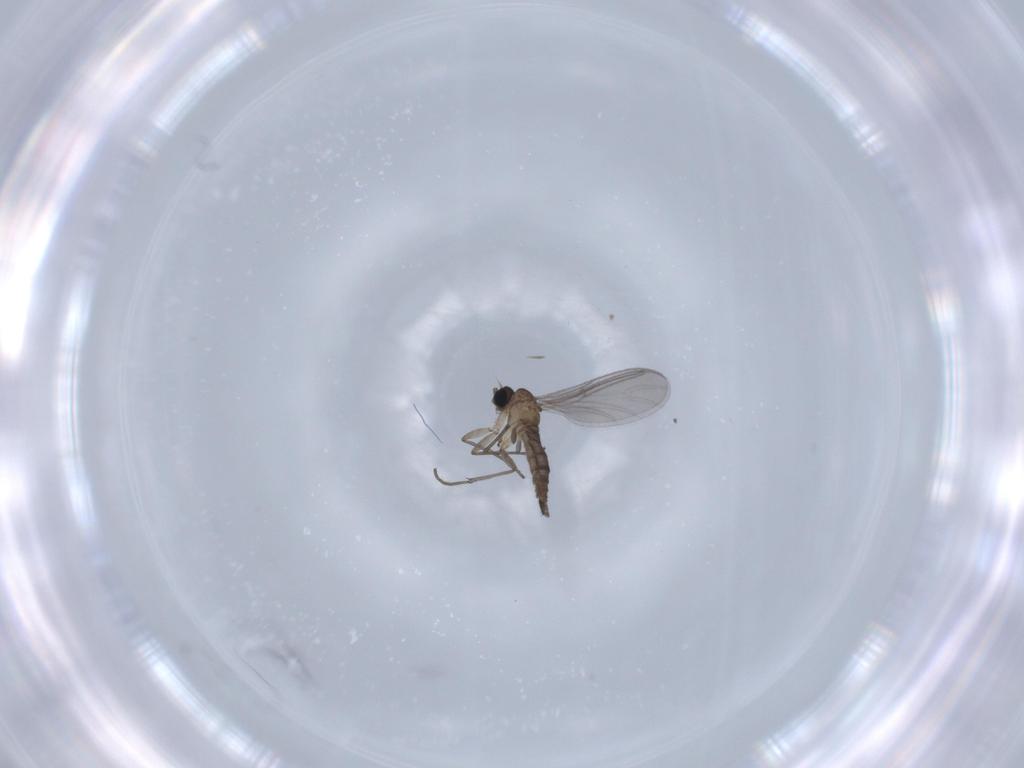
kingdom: Animalia
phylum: Arthropoda
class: Insecta
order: Diptera
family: Sciaridae
